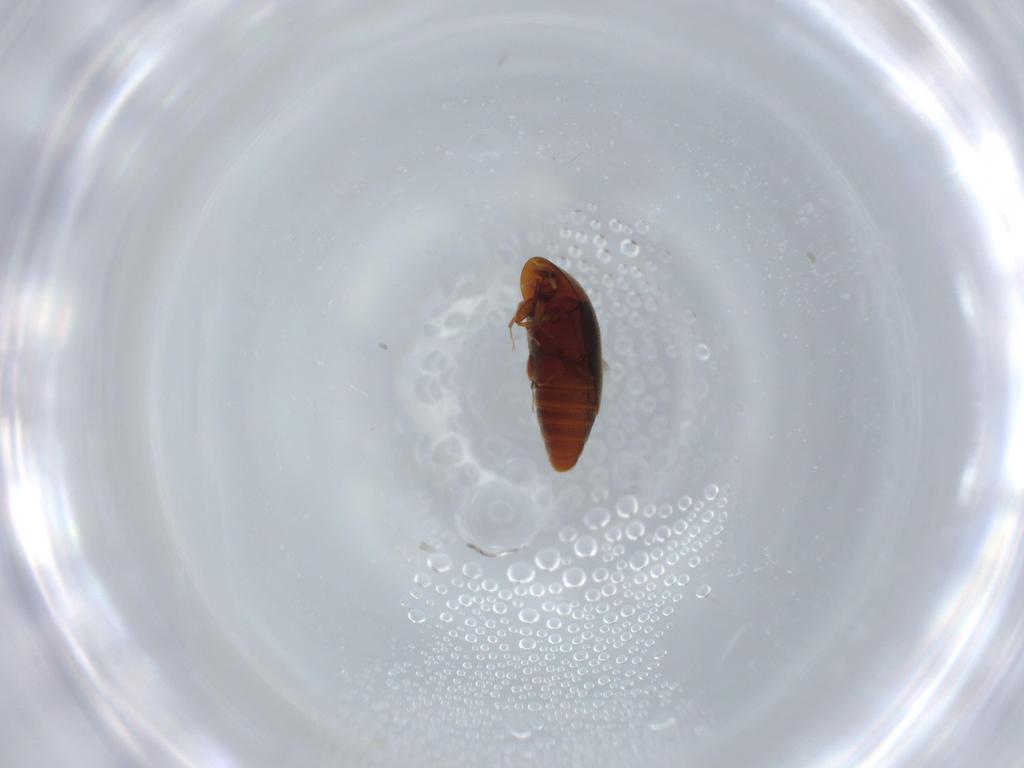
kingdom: Animalia
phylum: Arthropoda
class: Insecta
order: Coleoptera
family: Corylophidae
